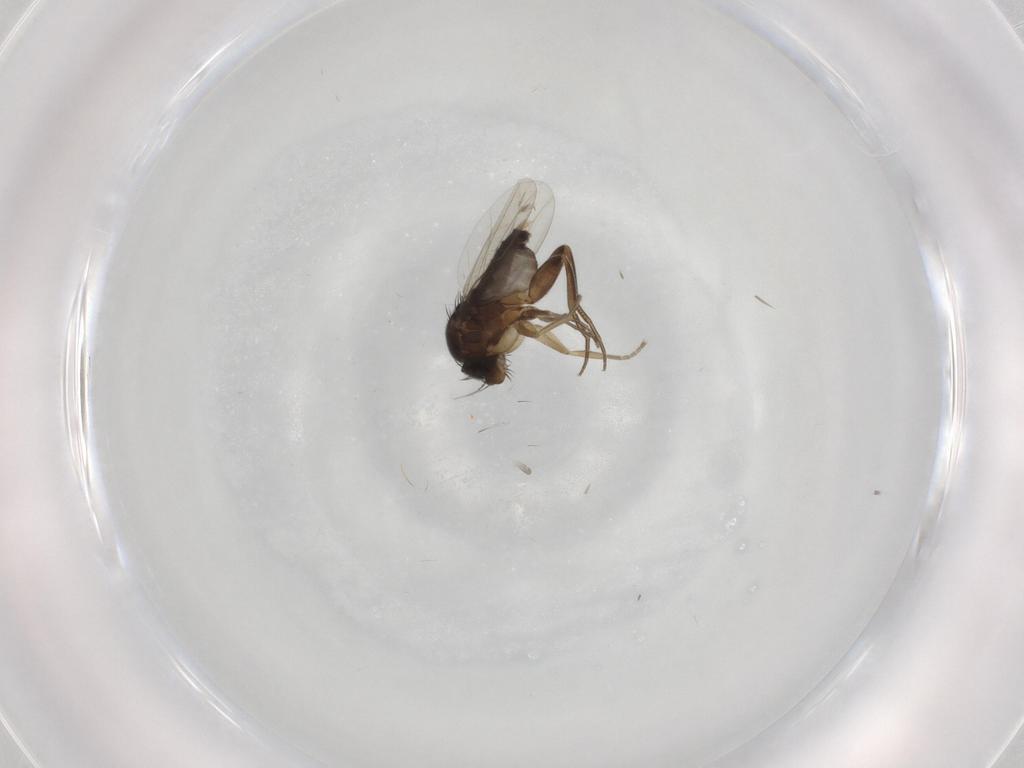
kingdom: Animalia
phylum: Arthropoda
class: Insecta
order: Diptera
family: Phoridae
